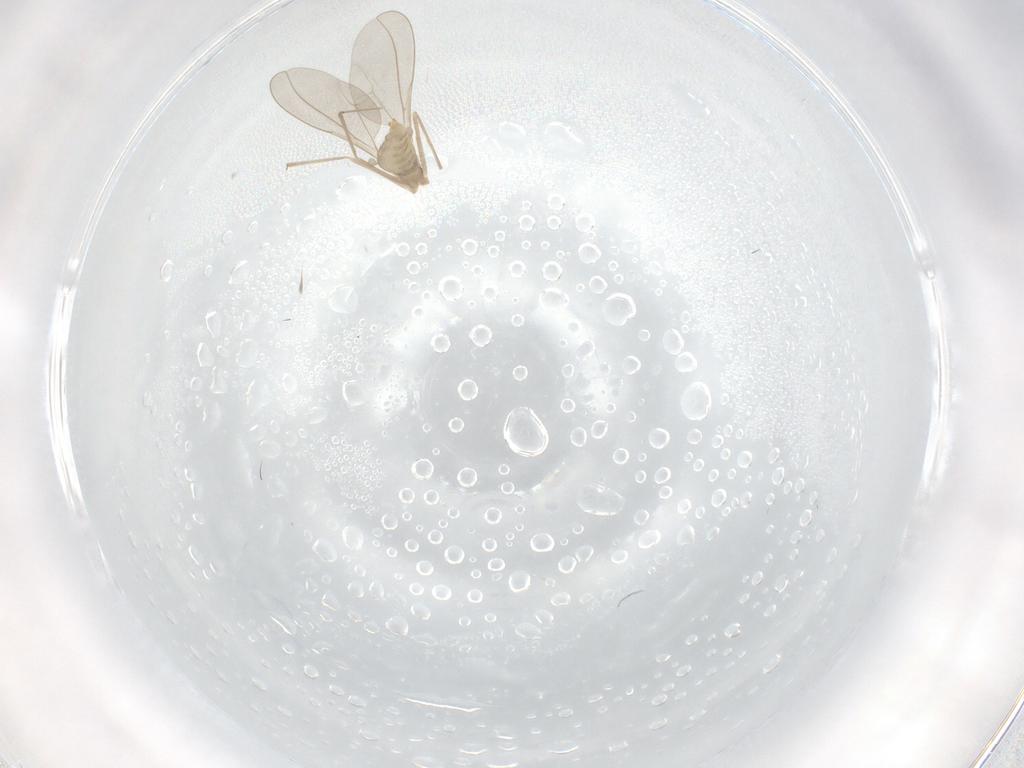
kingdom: Animalia
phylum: Arthropoda
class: Insecta
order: Diptera
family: Cecidomyiidae
